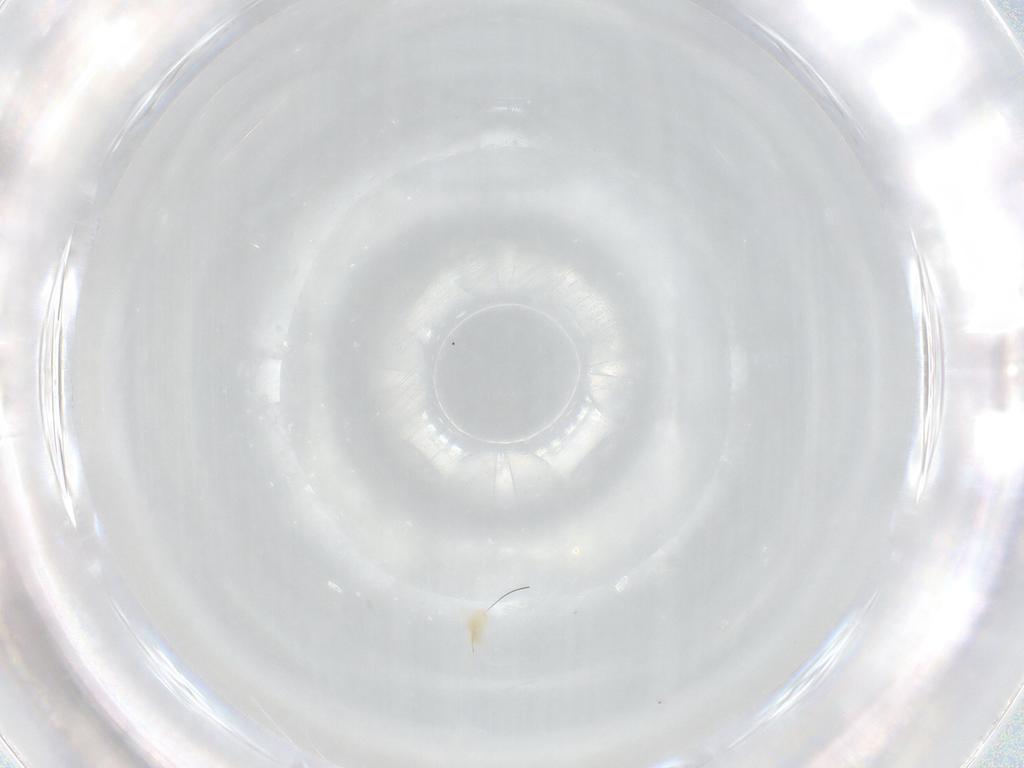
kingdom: Animalia
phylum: Arthropoda
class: Arachnida
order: Trombidiformes
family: Eupodidae
